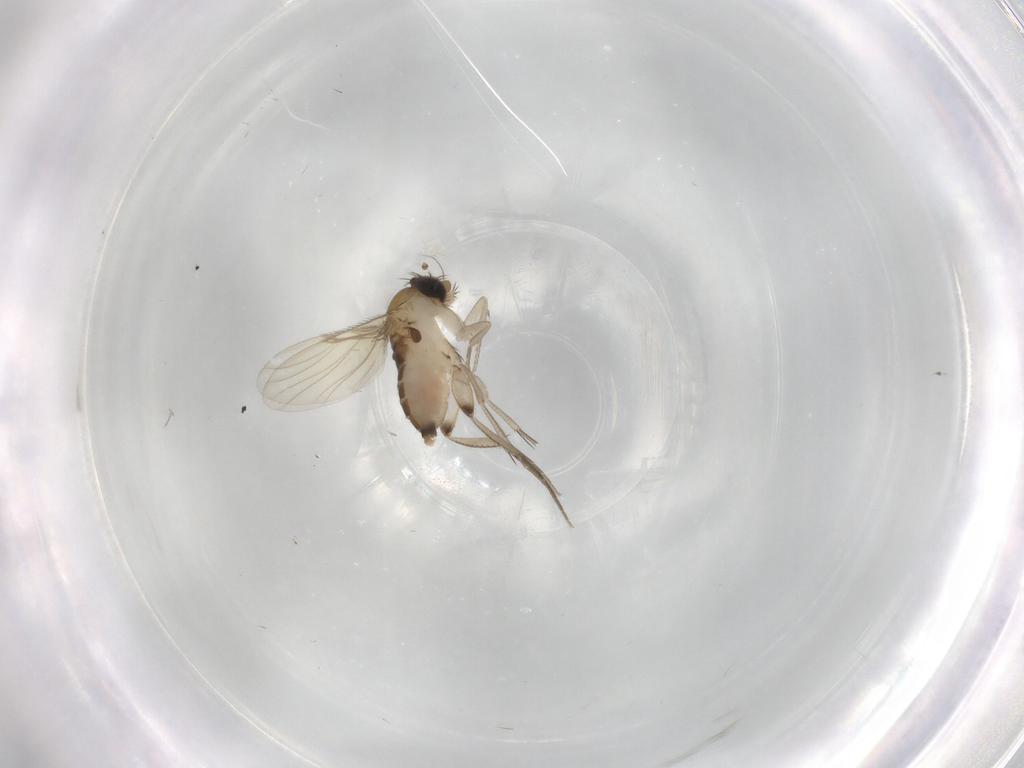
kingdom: Animalia
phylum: Arthropoda
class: Insecta
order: Diptera
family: Phoridae
